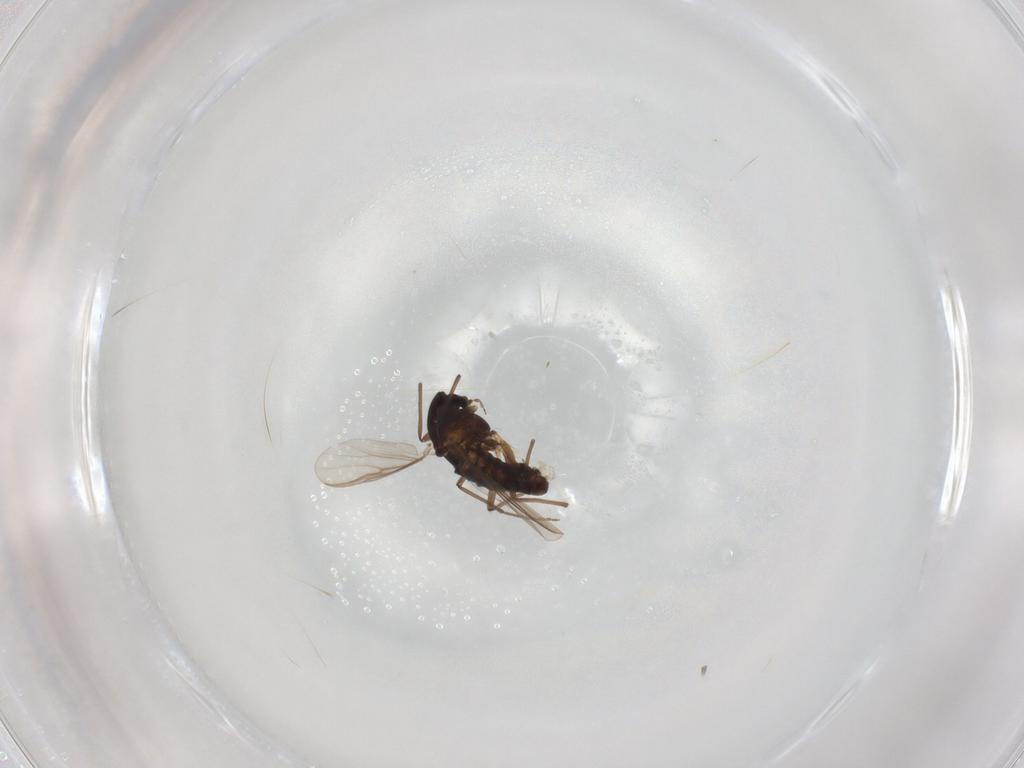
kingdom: Animalia
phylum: Arthropoda
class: Insecta
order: Diptera
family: Chironomidae
